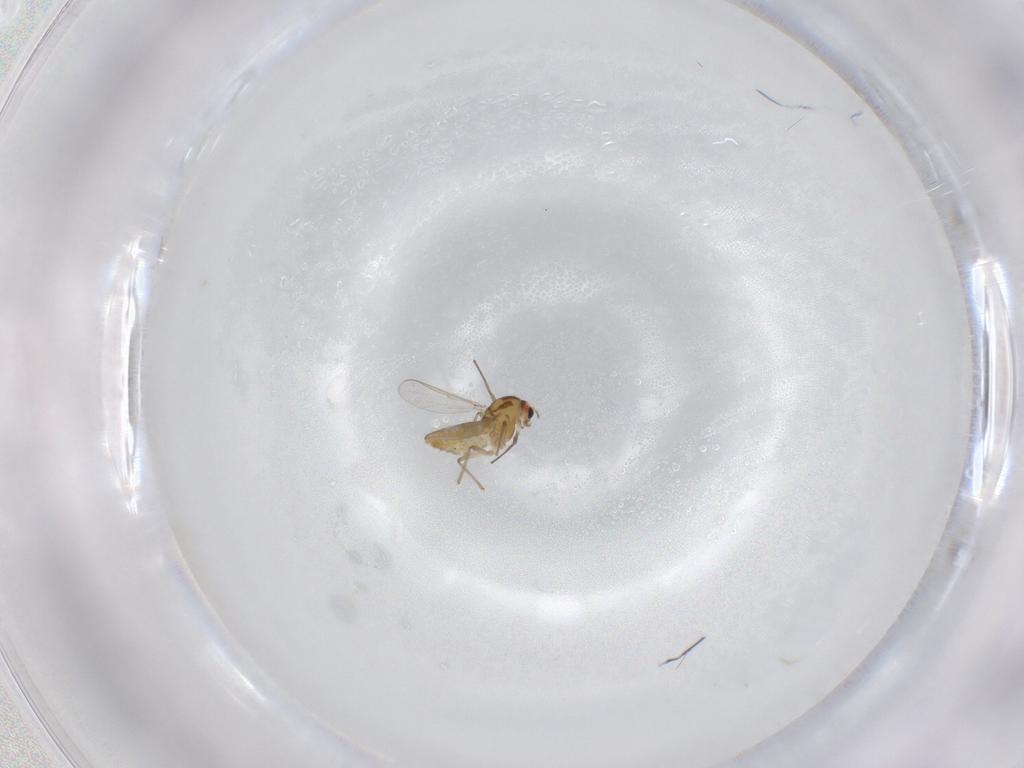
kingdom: Animalia
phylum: Arthropoda
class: Insecta
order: Diptera
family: Chironomidae
